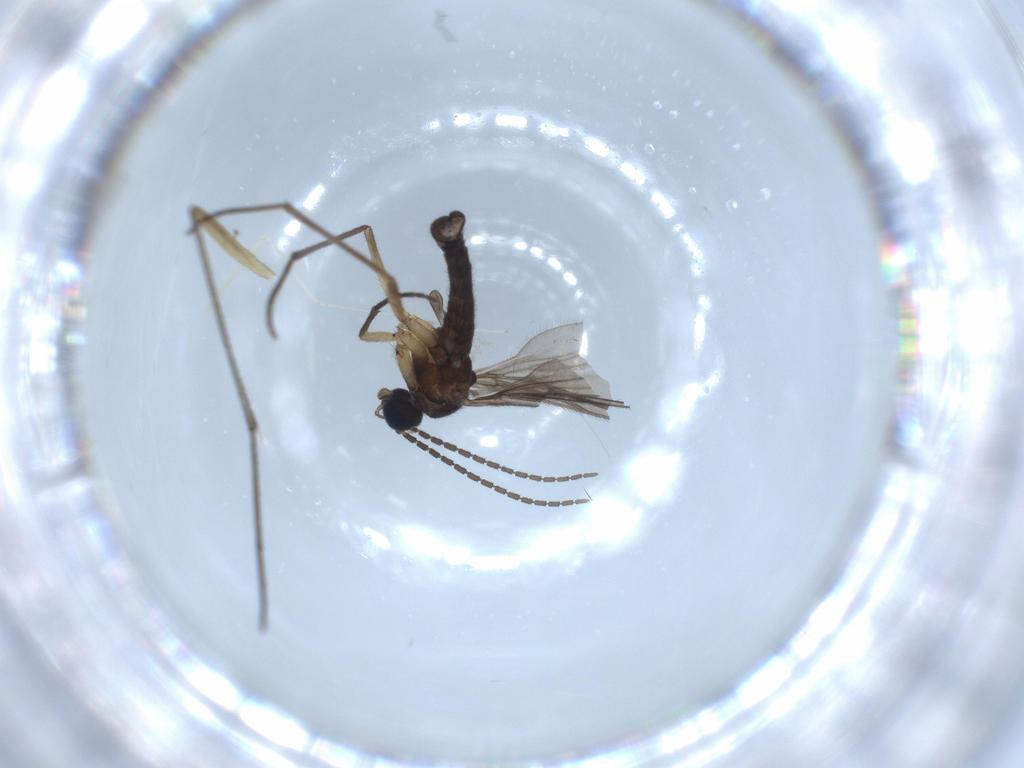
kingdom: Animalia
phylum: Arthropoda
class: Insecta
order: Diptera
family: Sciaridae
